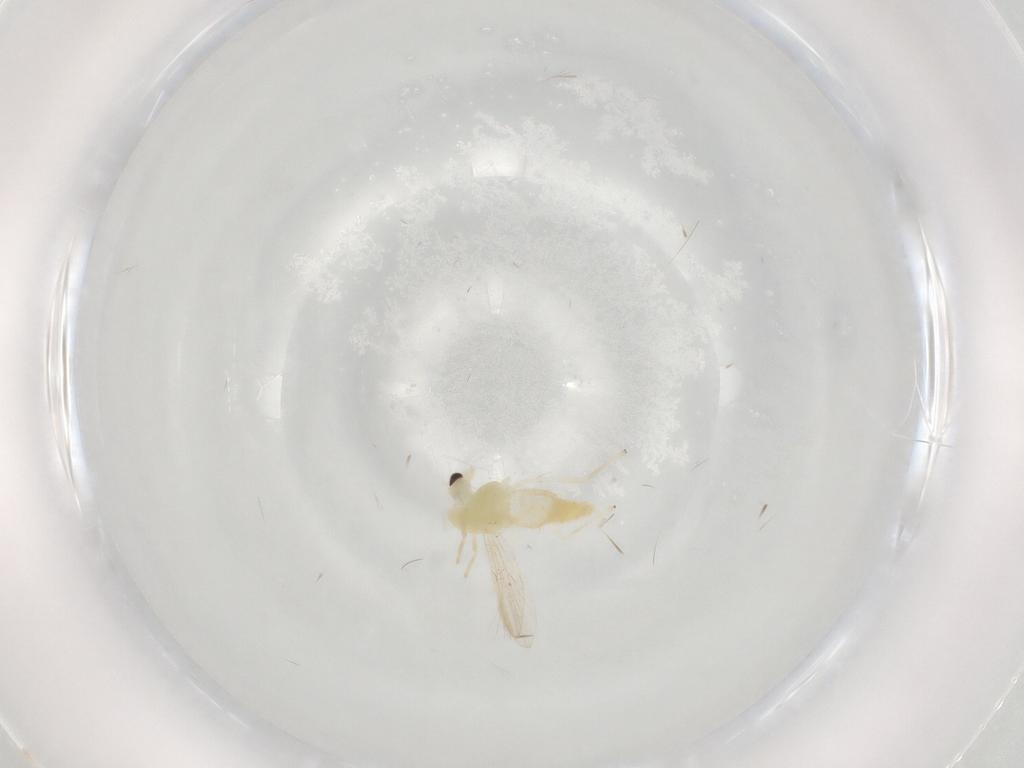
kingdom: Animalia
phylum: Arthropoda
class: Insecta
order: Diptera
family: Chironomidae
